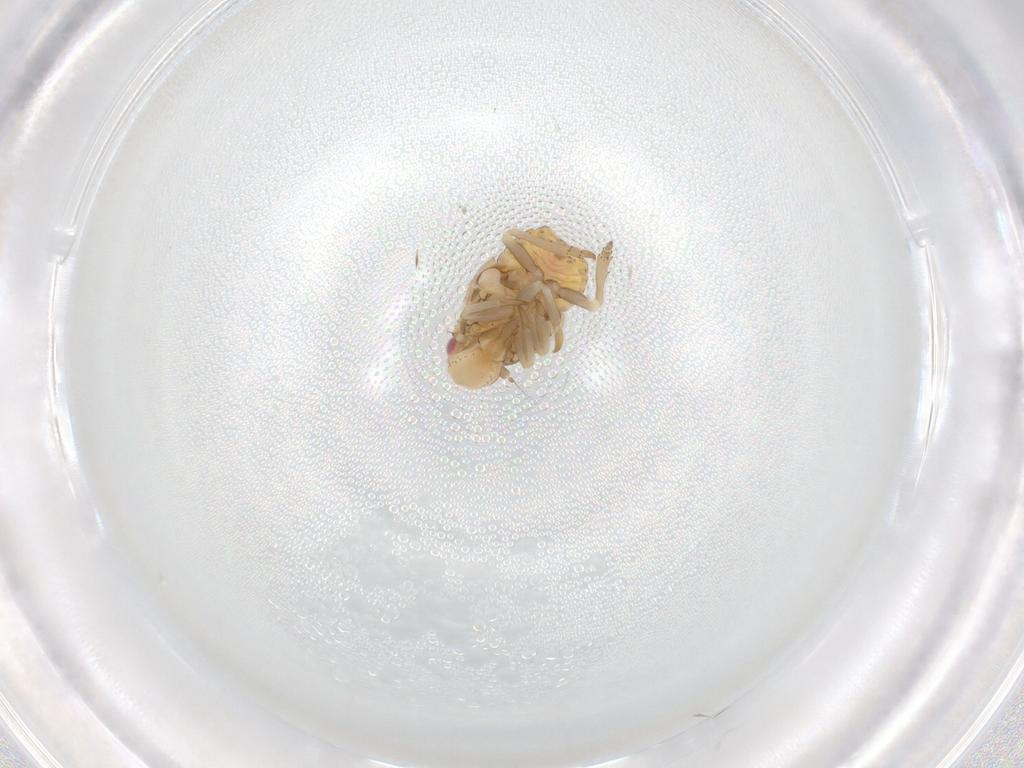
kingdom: Animalia
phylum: Arthropoda
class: Insecta
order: Hemiptera
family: Flatidae
